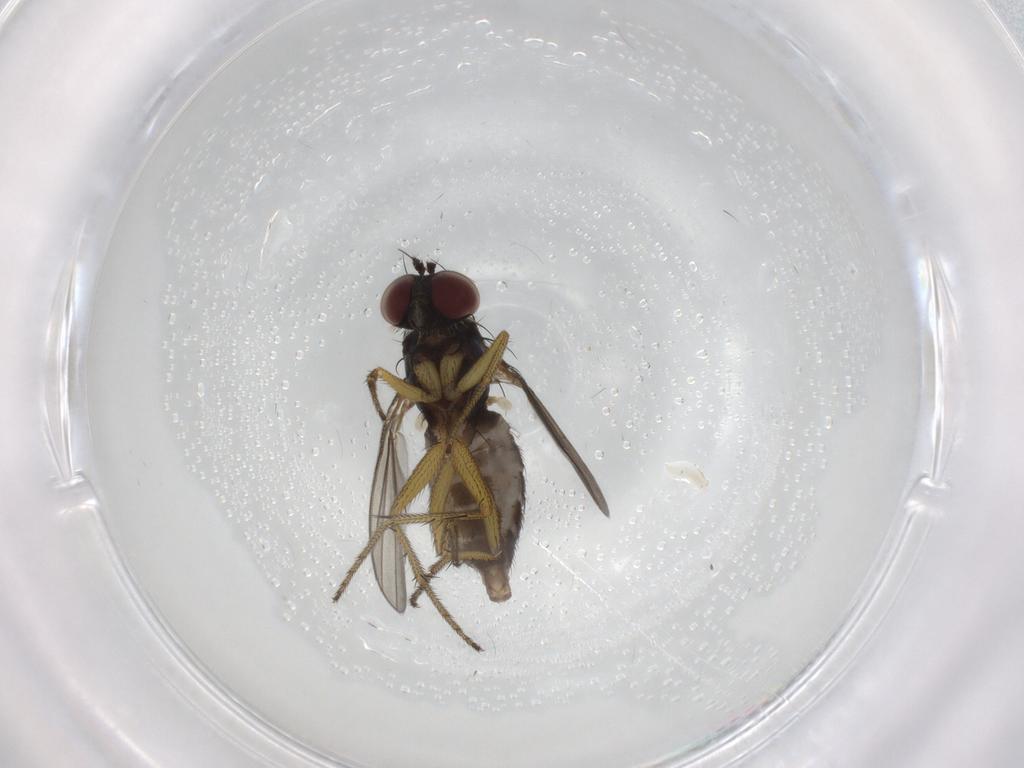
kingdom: Animalia
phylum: Arthropoda
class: Insecta
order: Diptera
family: Dolichopodidae
